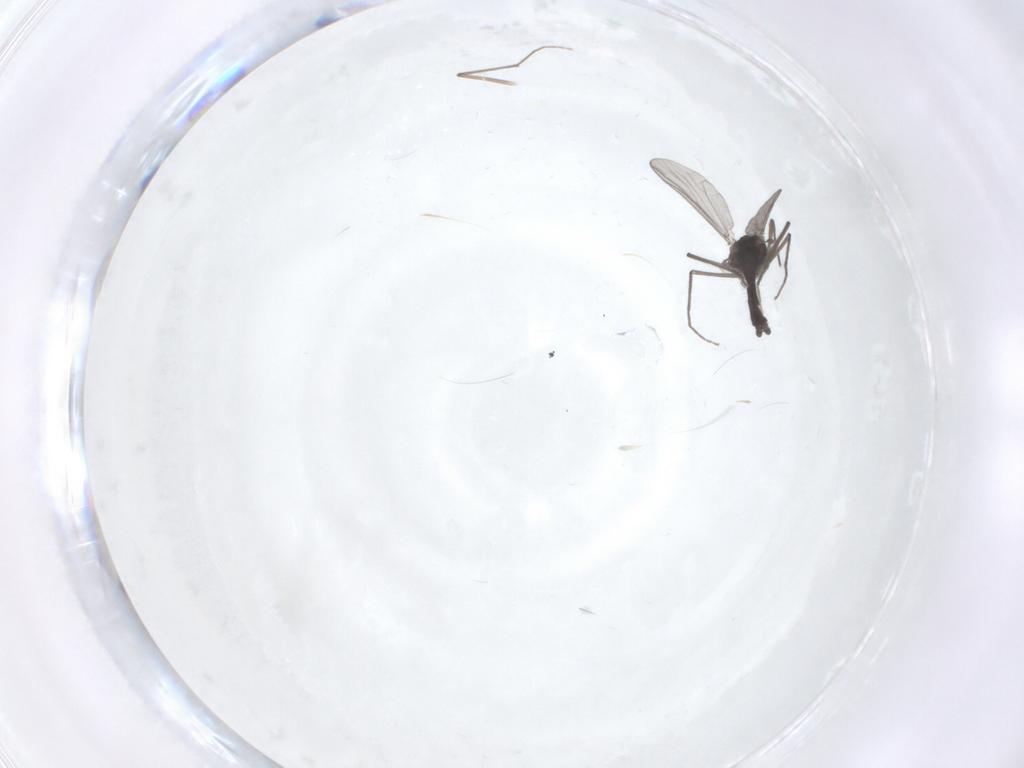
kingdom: Animalia
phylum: Arthropoda
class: Insecta
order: Diptera
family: Chironomidae
